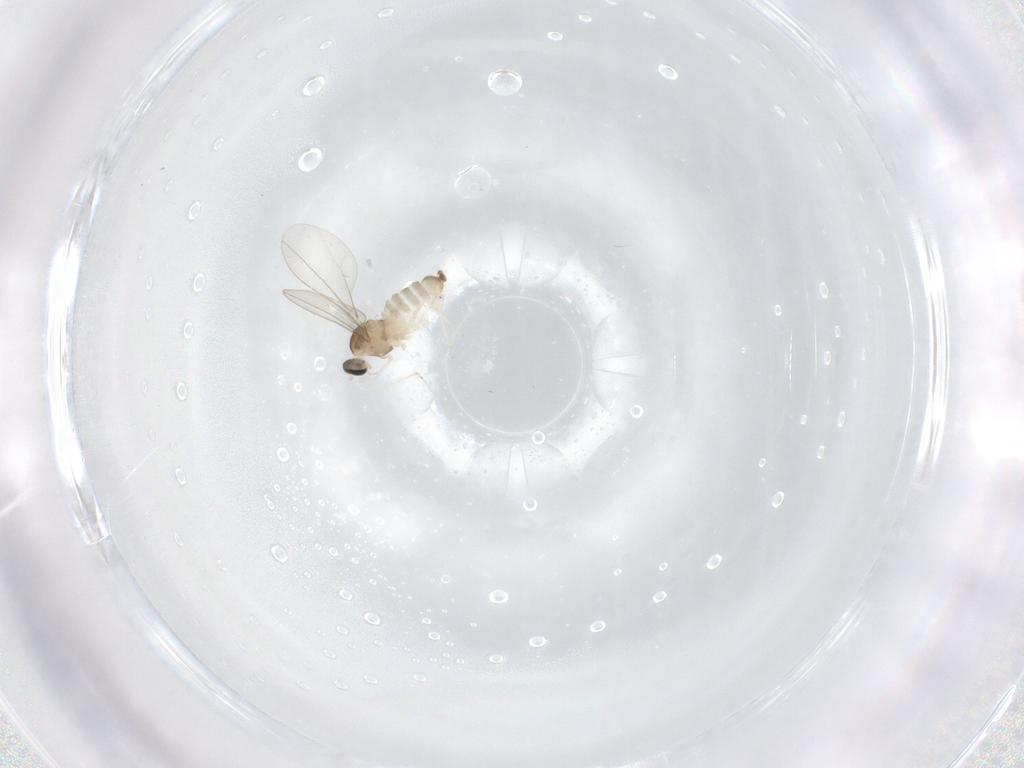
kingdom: Animalia
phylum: Arthropoda
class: Insecta
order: Diptera
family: Cecidomyiidae
